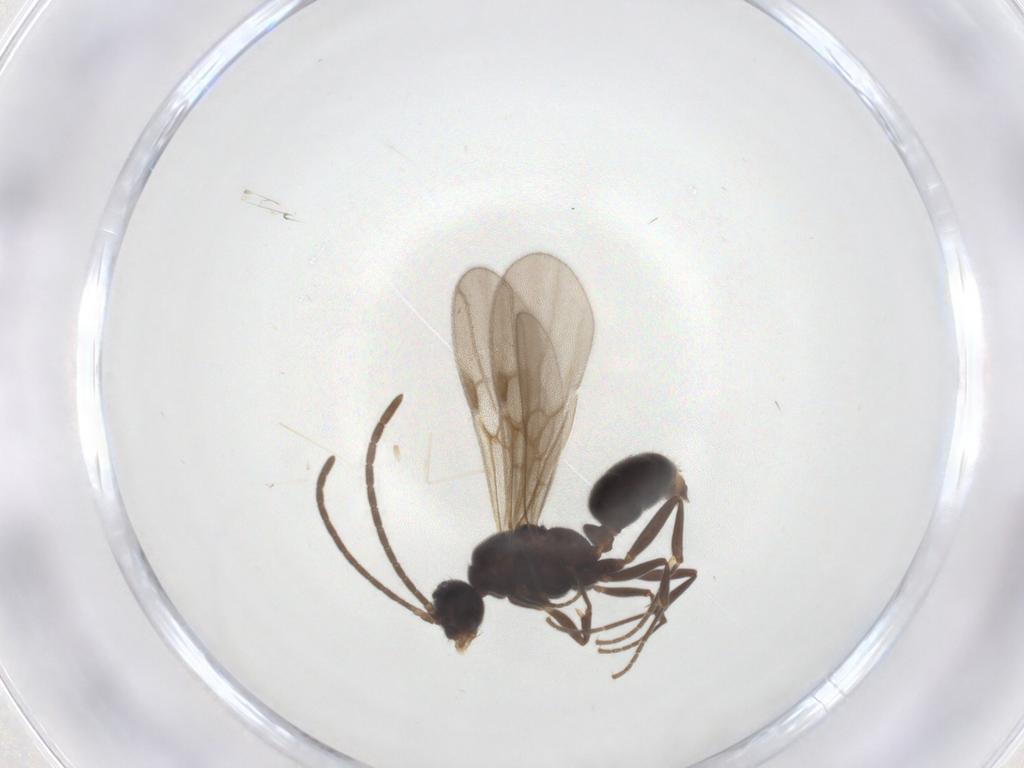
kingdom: Animalia
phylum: Arthropoda
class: Insecta
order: Hymenoptera
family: Formicidae
